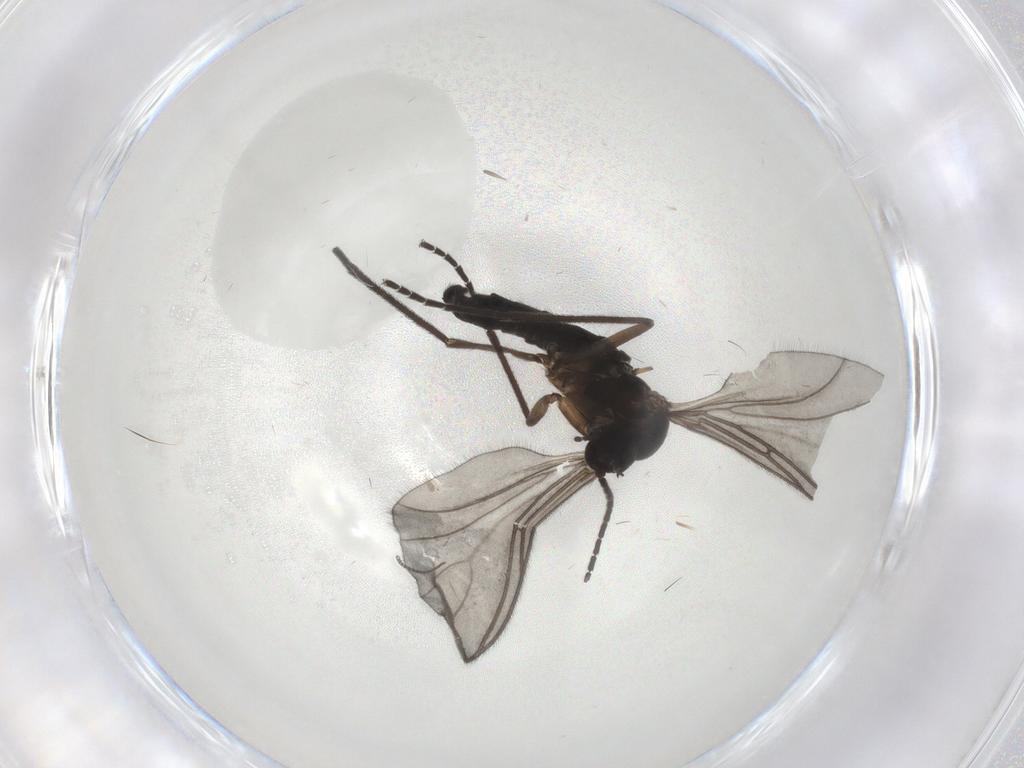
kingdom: Animalia
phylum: Arthropoda
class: Insecta
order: Diptera
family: Sciaridae
